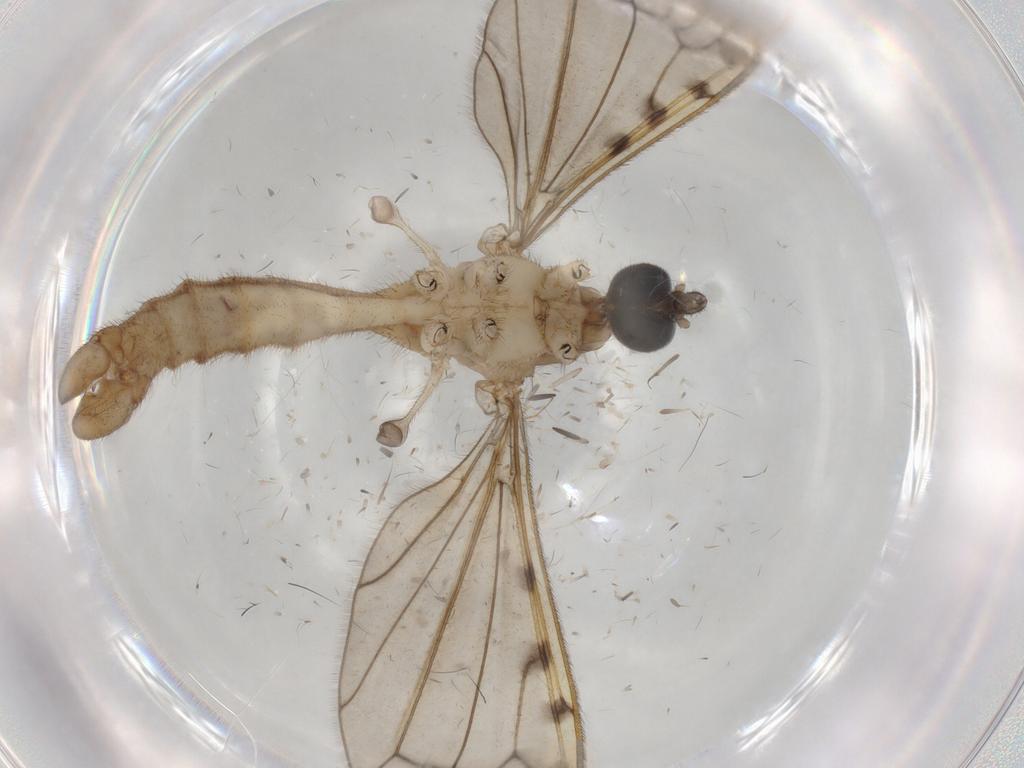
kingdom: Animalia
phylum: Arthropoda
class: Insecta
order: Diptera
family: Limoniidae
